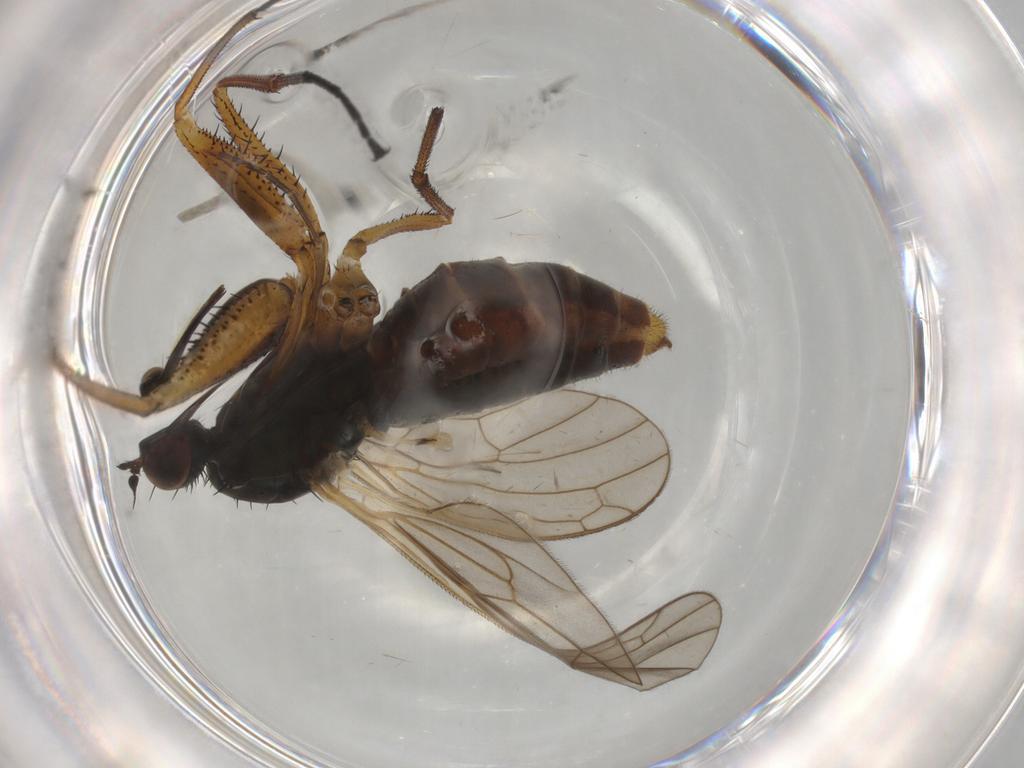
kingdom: Animalia
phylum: Arthropoda
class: Insecta
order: Diptera
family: Empididae
